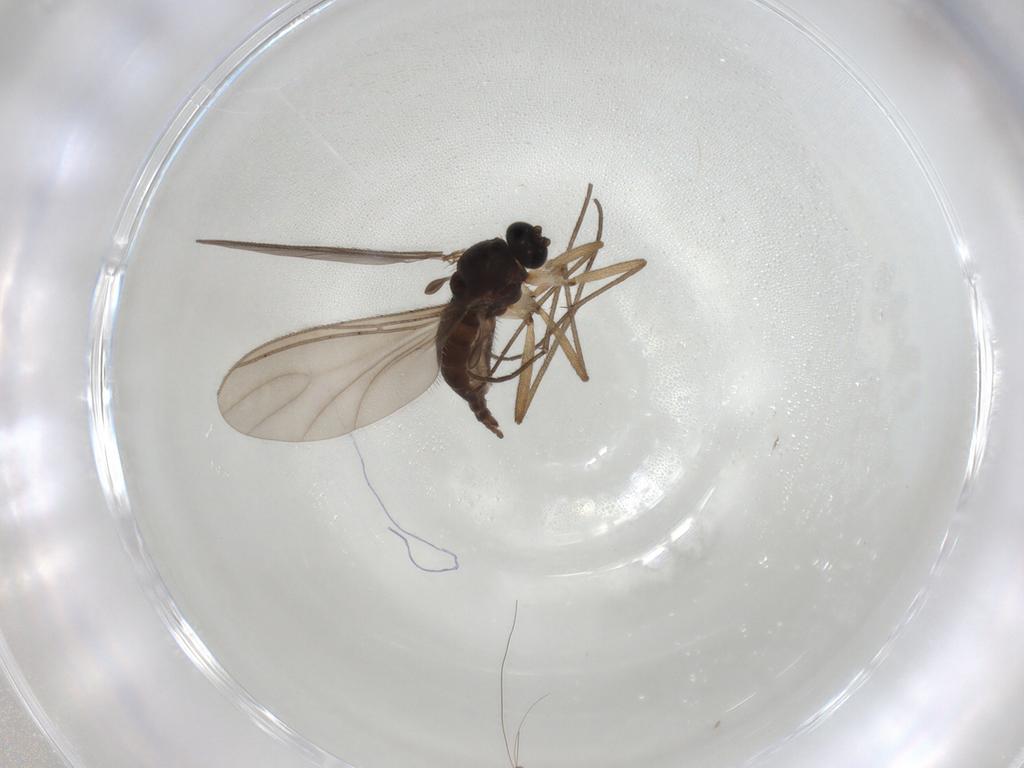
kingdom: Animalia
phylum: Arthropoda
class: Insecta
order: Diptera
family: Sciaridae
